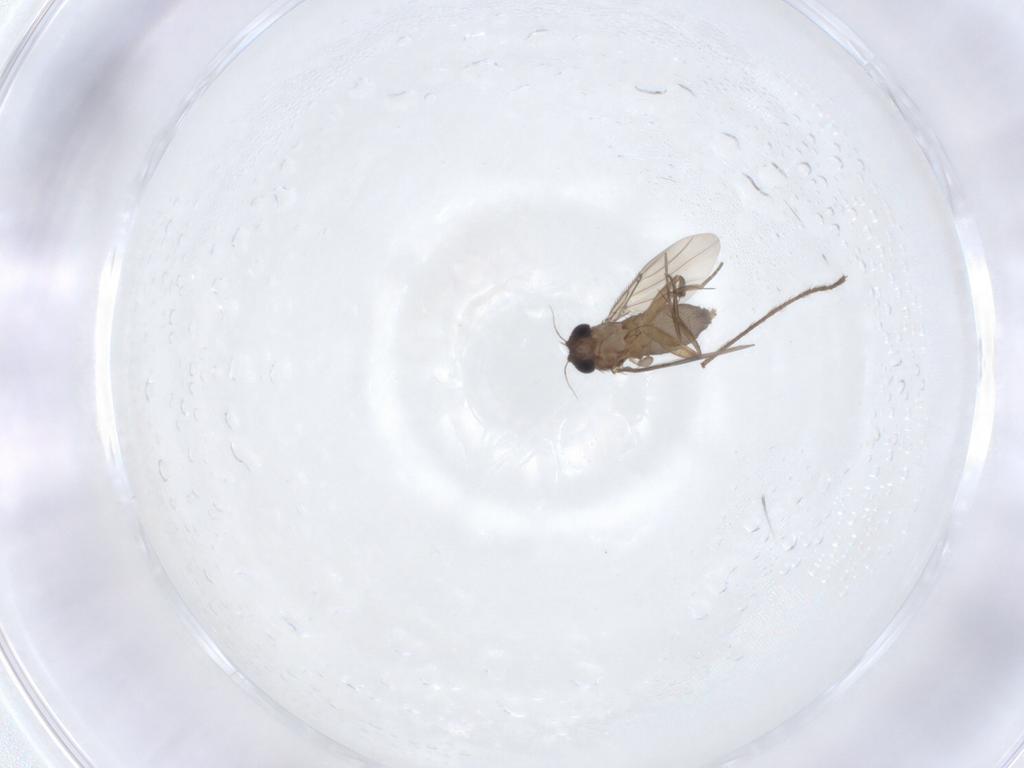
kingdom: Animalia
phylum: Arthropoda
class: Insecta
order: Diptera
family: Phoridae
